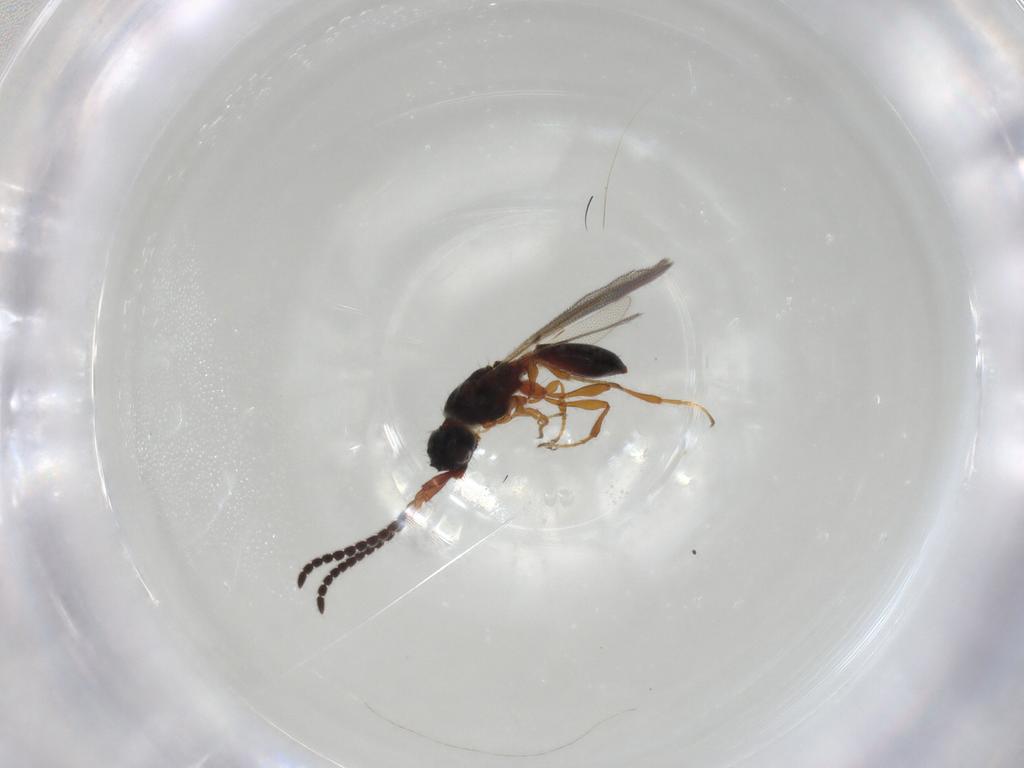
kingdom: Animalia
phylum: Arthropoda
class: Insecta
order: Hymenoptera
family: Diapriidae
